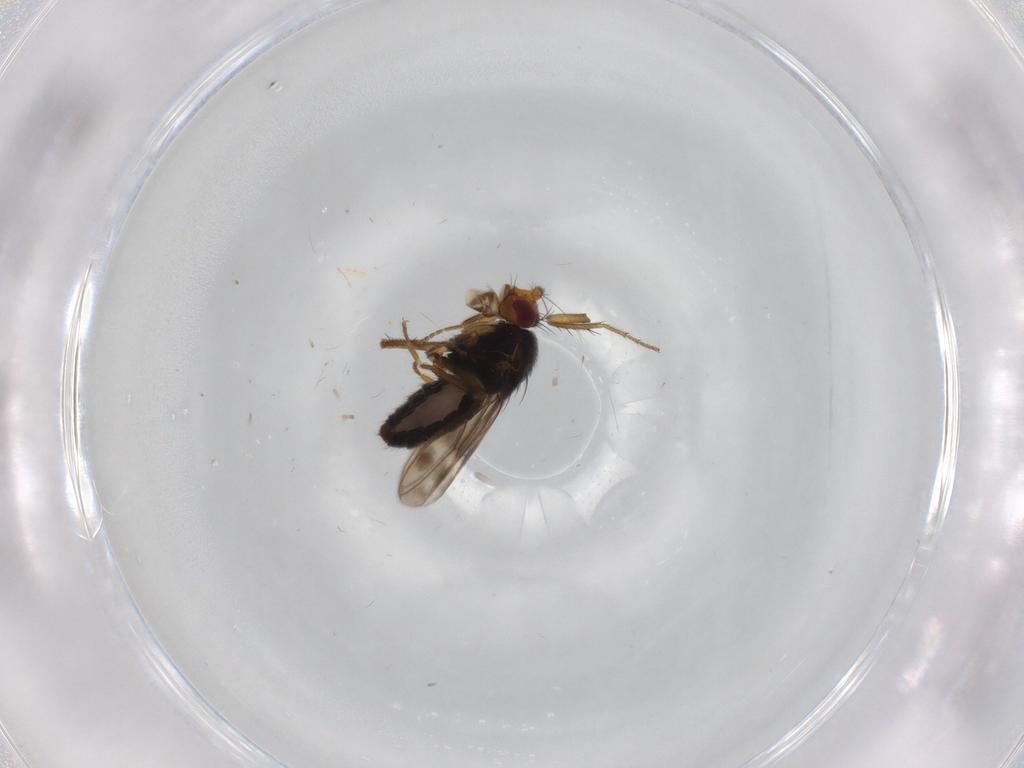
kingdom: Animalia
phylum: Arthropoda
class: Insecta
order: Diptera
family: Sphaeroceridae
